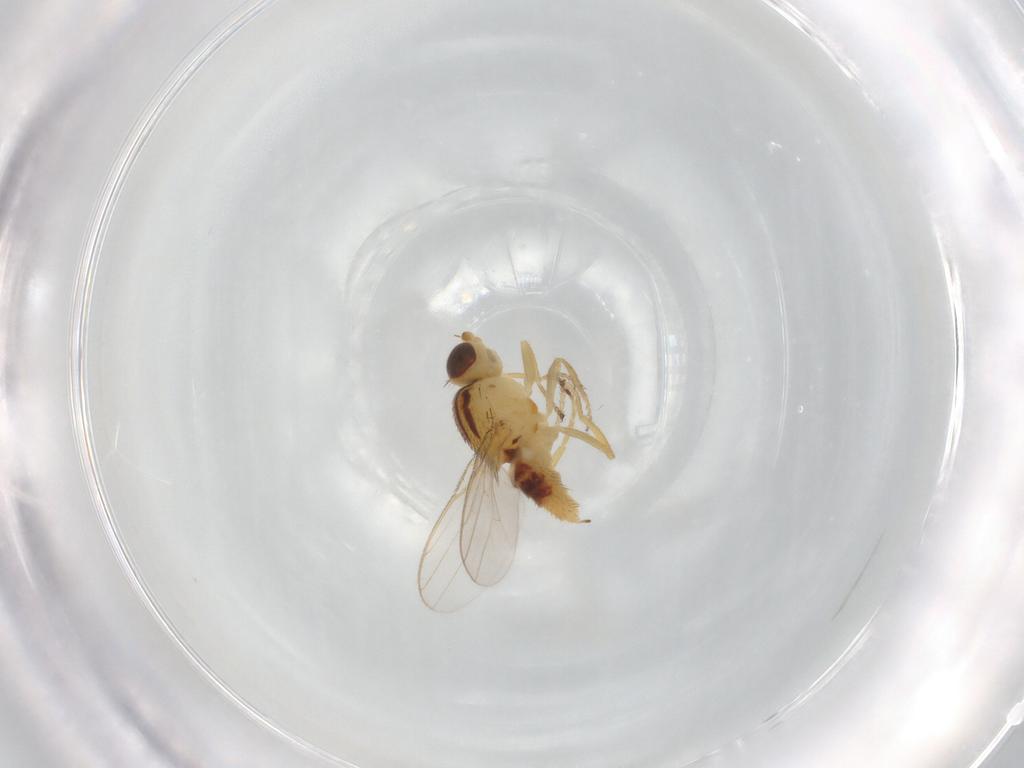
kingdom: Animalia
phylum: Arthropoda
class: Insecta
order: Diptera
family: Chloropidae
